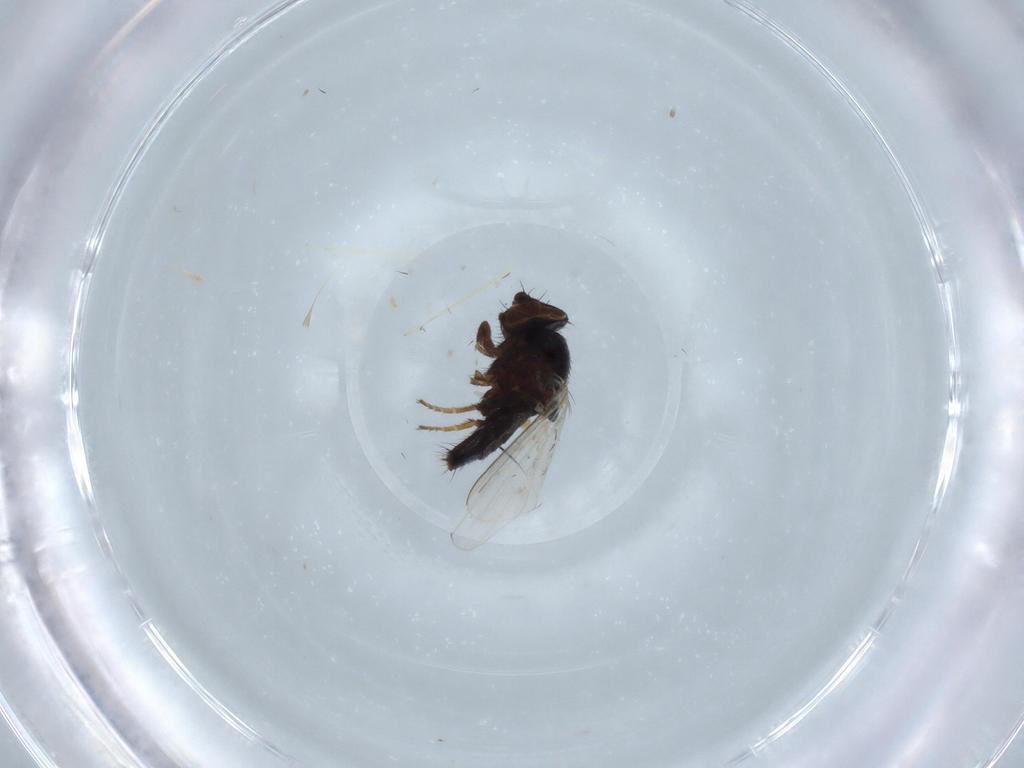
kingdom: Animalia
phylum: Arthropoda
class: Insecta
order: Diptera
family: Dolichopodidae
